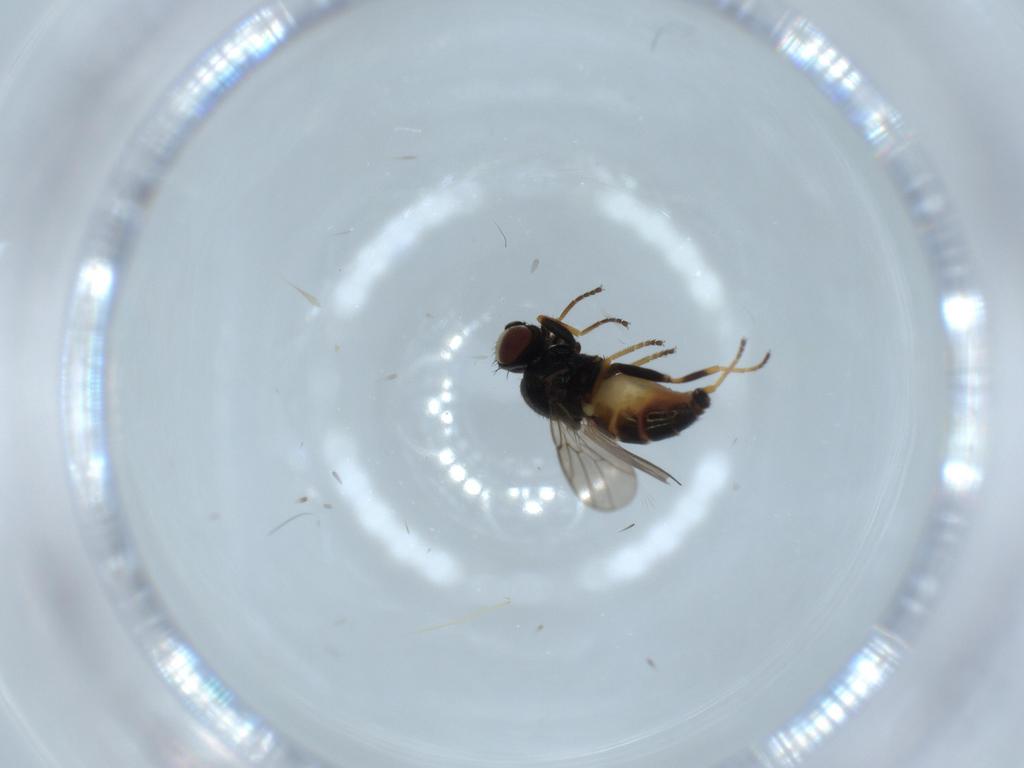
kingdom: Animalia
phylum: Arthropoda
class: Insecta
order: Diptera
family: Chloropidae
